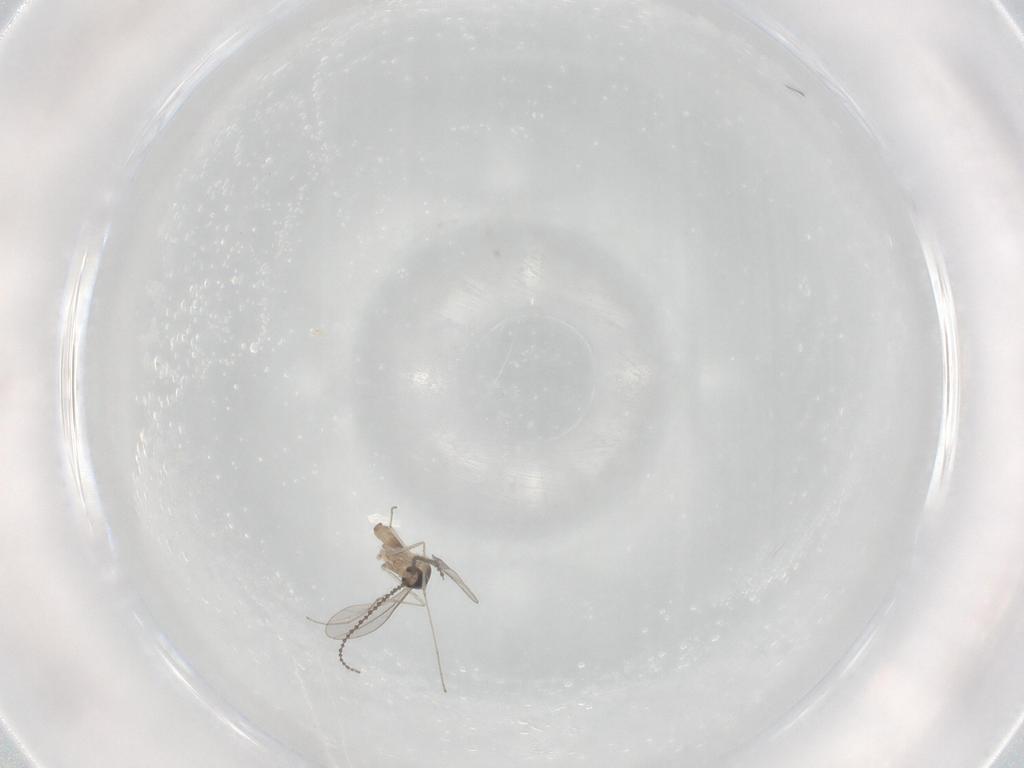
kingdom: Animalia
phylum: Arthropoda
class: Insecta
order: Diptera
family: Cecidomyiidae
